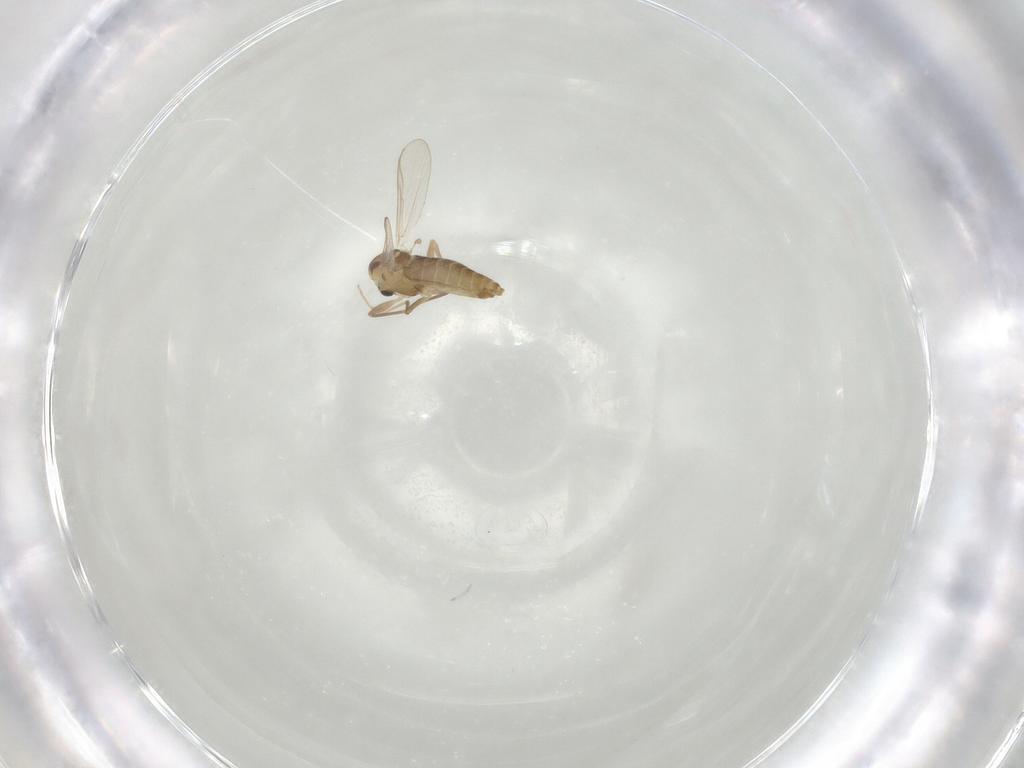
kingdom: Animalia
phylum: Arthropoda
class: Insecta
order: Diptera
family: Chironomidae
